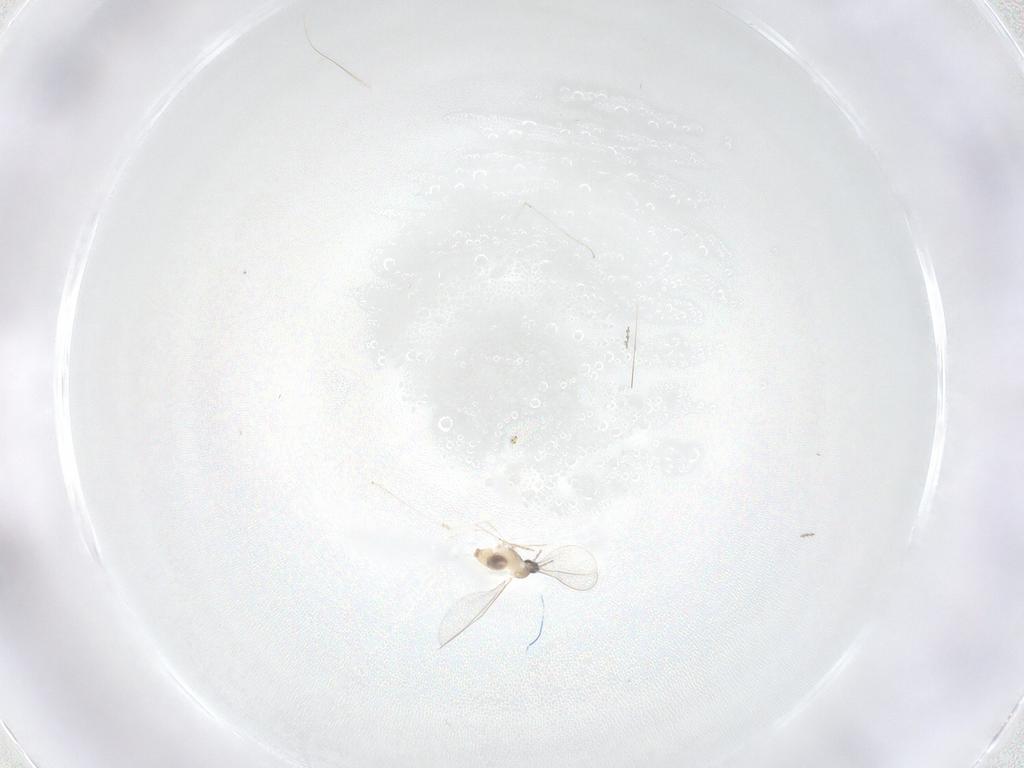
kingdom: Animalia
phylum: Arthropoda
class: Insecta
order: Diptera
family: Cecidomyiidae
